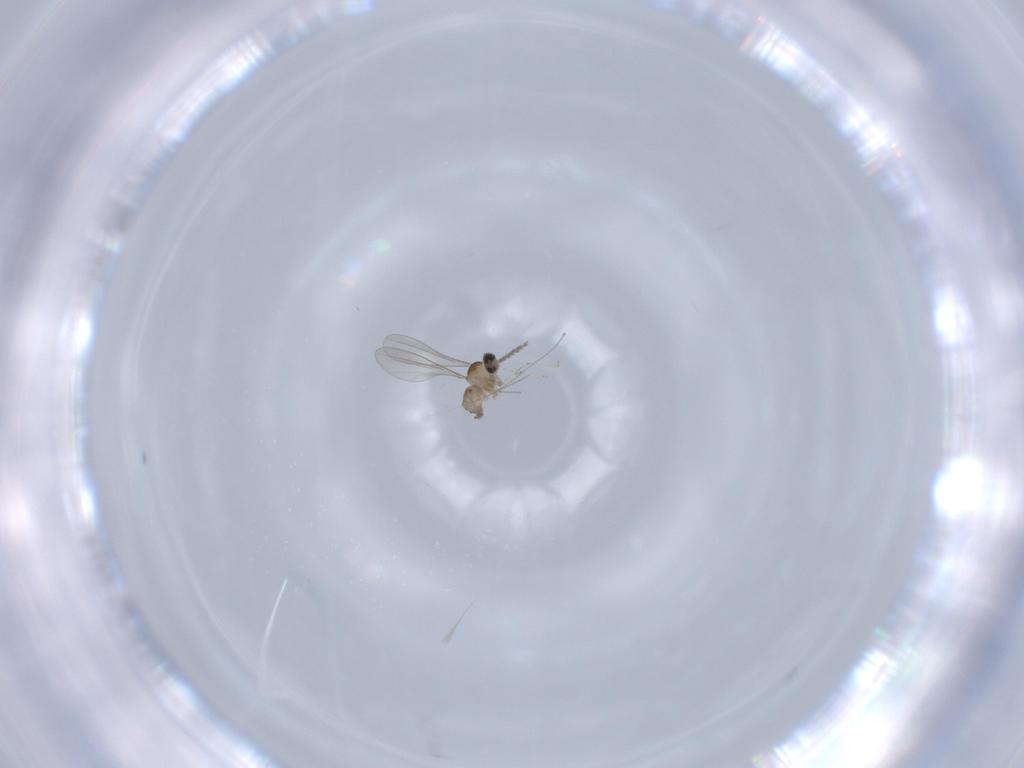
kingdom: Animalia
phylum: Arthropoda
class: Insecta
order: Diptera
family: Cecidomyiidae
